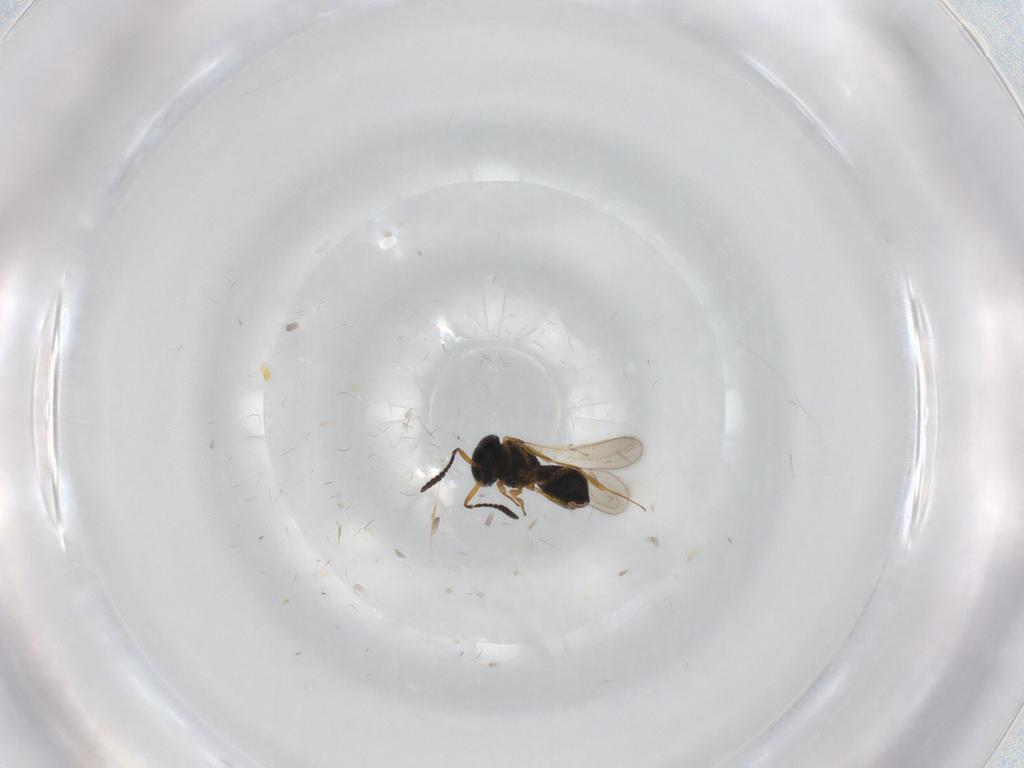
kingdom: Animalia
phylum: Arthropoda
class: Insecta
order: Hymenoptera
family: Scelionidae
